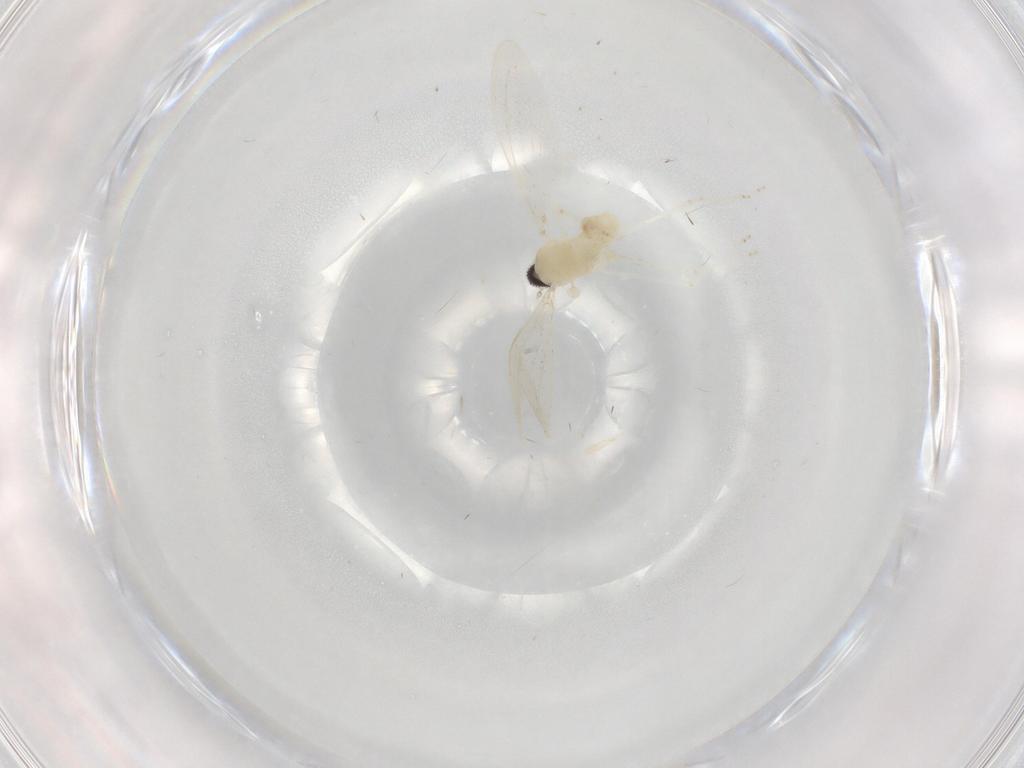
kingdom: Animalia
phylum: Arthropoda
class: Insecta
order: Diptera
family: Cecidomyiidae
